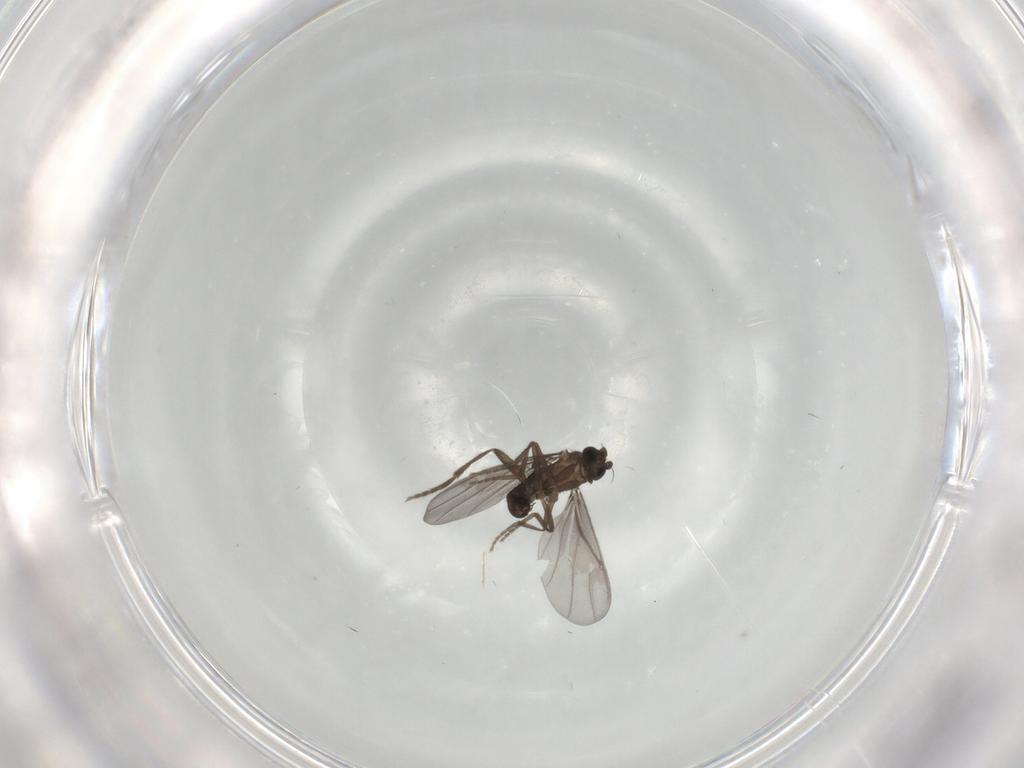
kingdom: Animalia
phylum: Arthropoda
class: Insecta
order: Diptera
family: Phoridae
